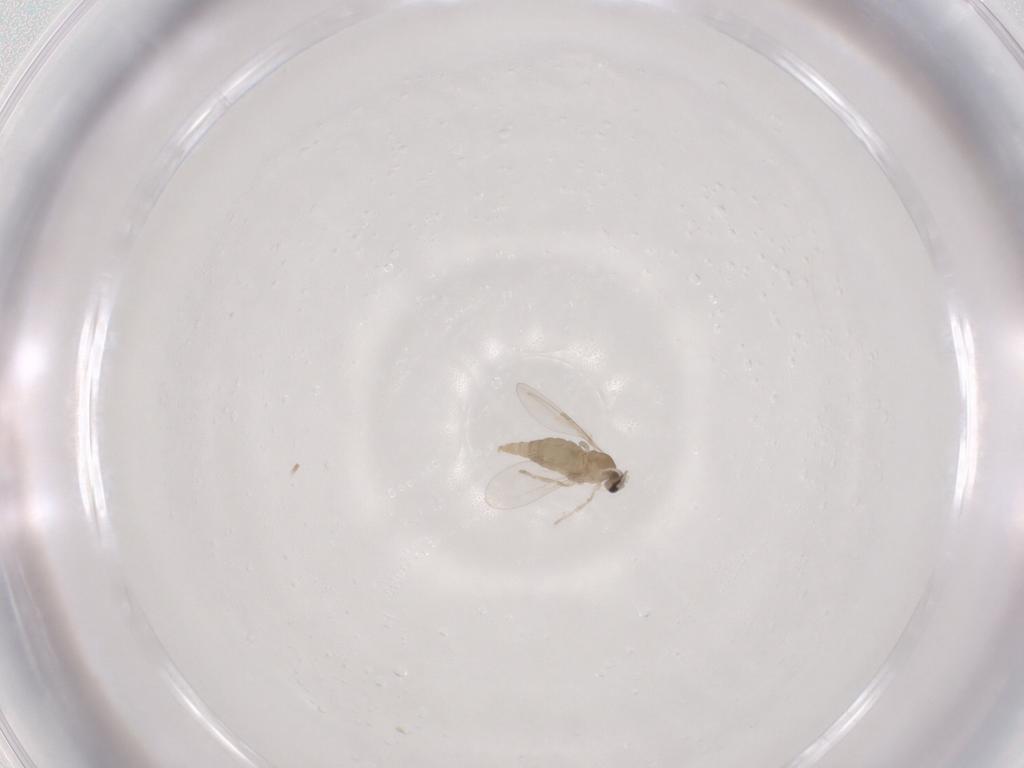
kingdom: Animalia
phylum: Arthropoda
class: Insecta
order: Diptera
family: Cecidomyiidae
